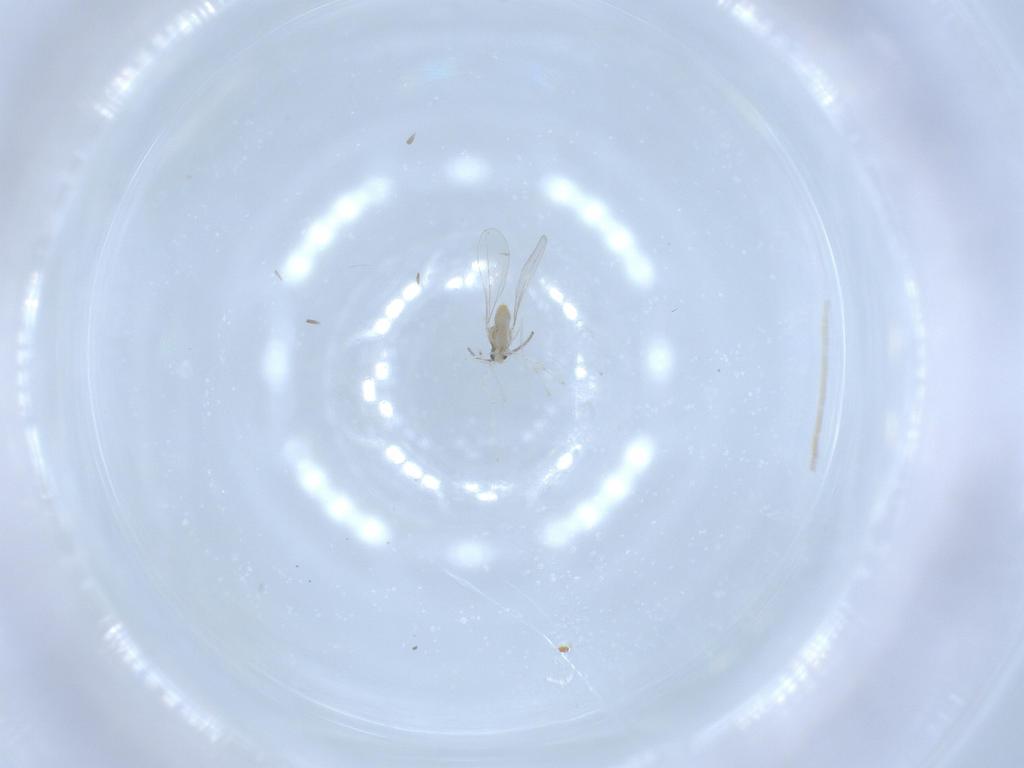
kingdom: Animalia
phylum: Arthropoda
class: Insecta
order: Diptera
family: Cecidomyiidae
